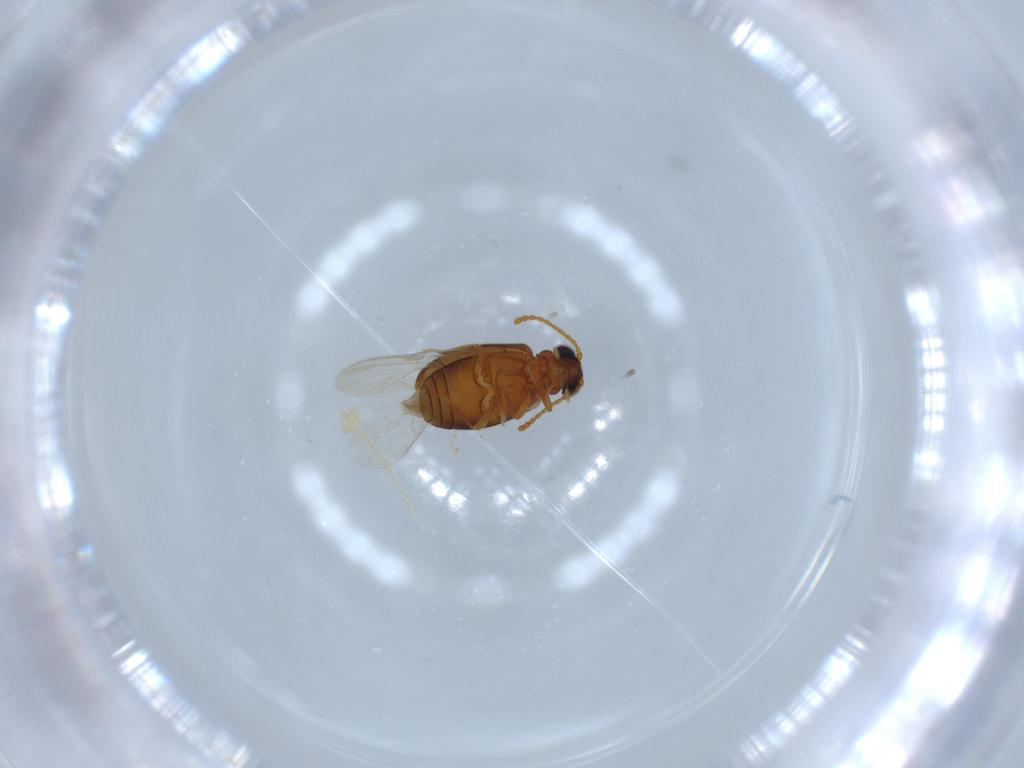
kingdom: Animalia
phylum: Arthropoda
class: Insecta
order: Coleoptera
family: Aderidae
